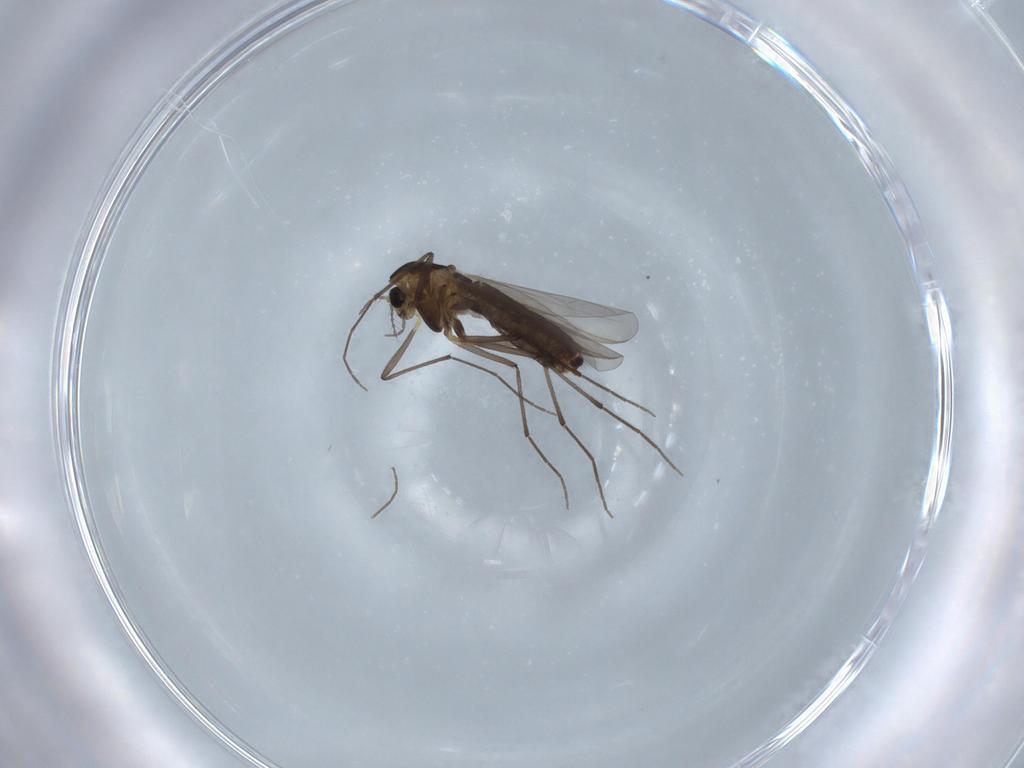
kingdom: Animalia
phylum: Arthropoda
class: Insecta
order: Diptera
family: Chironomidae
